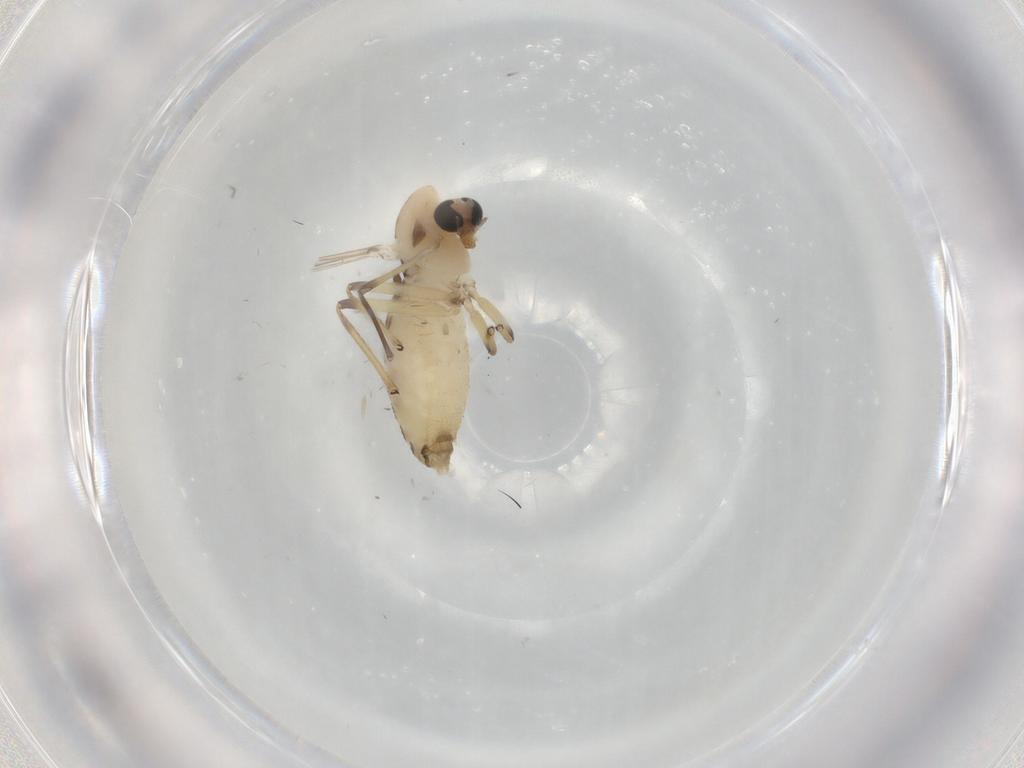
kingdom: Animalia
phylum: Arthropoda
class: Insecta
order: Diptera
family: Chironomidae
